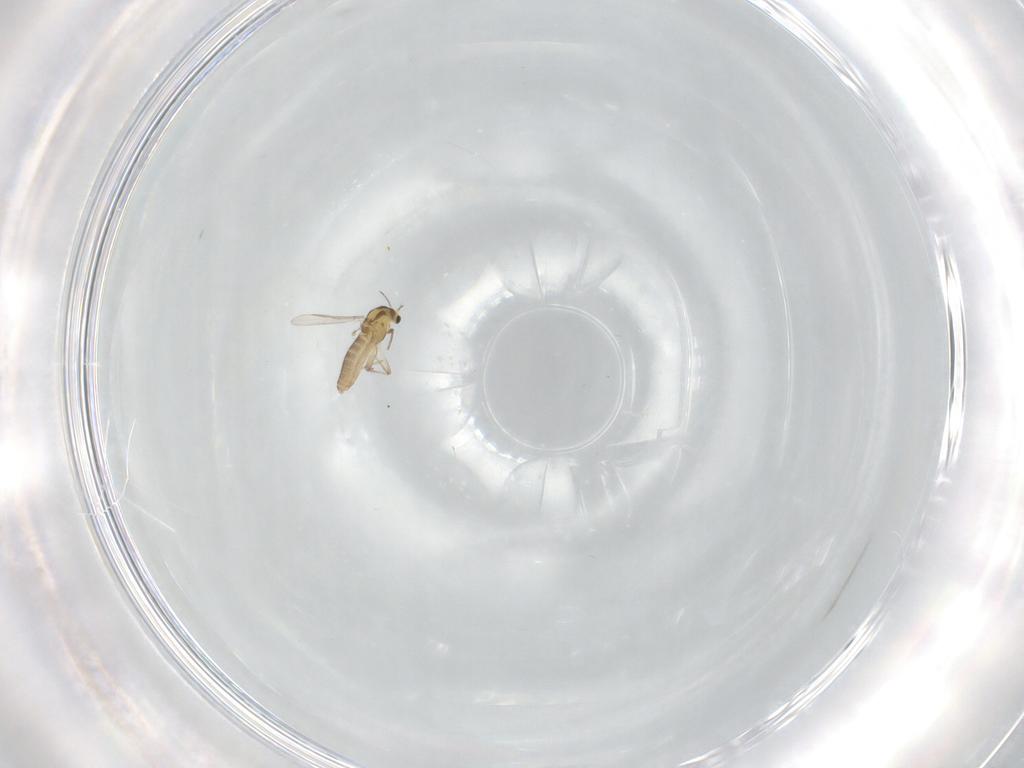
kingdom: Animalia
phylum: Arthropoda
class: Insecta
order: Diptera
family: Chironomidae
